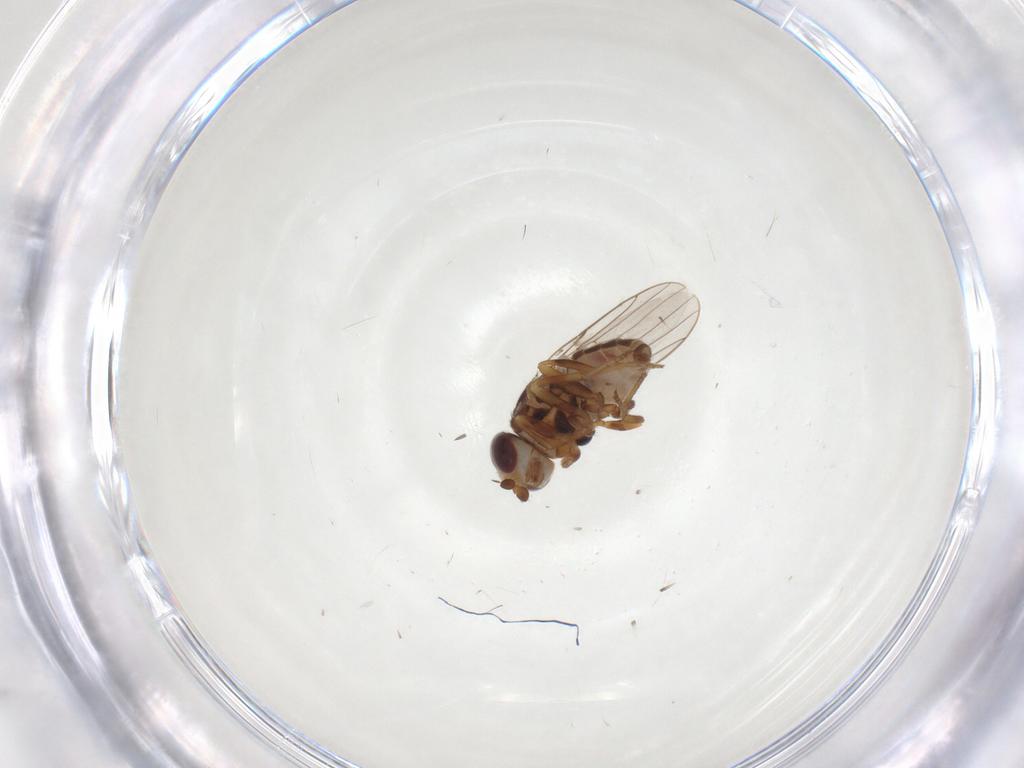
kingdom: Animalia
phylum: Arthropoda
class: Insecta
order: Diptera
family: Chloropidae
